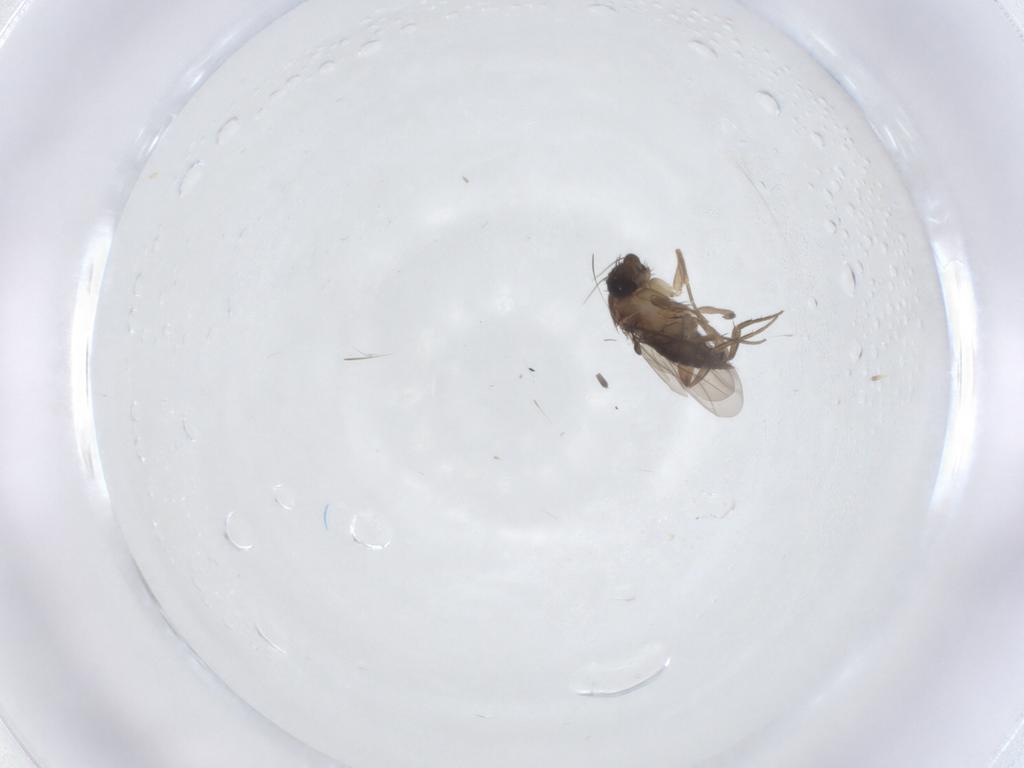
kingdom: Animalia
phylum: Arthropoda
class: Insecta
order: Diptera
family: Phoridae
